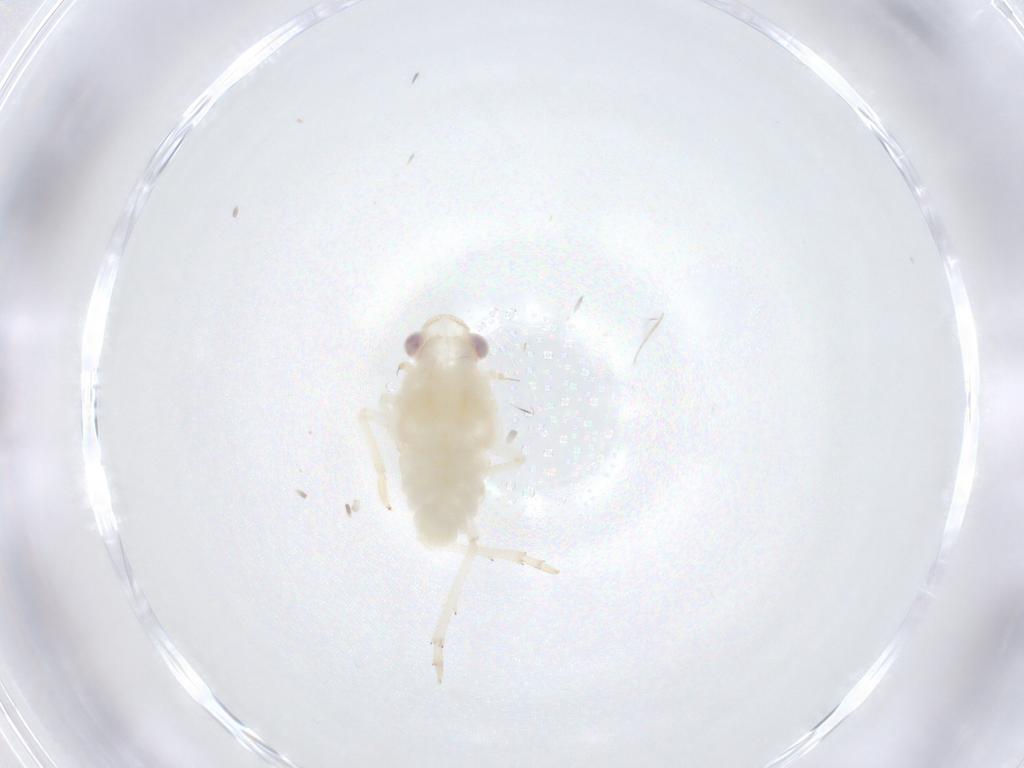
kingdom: Animalia
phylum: Arthropoda
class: Insecta
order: Hemiptera
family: Fulgoroidea_incertae_sedis
